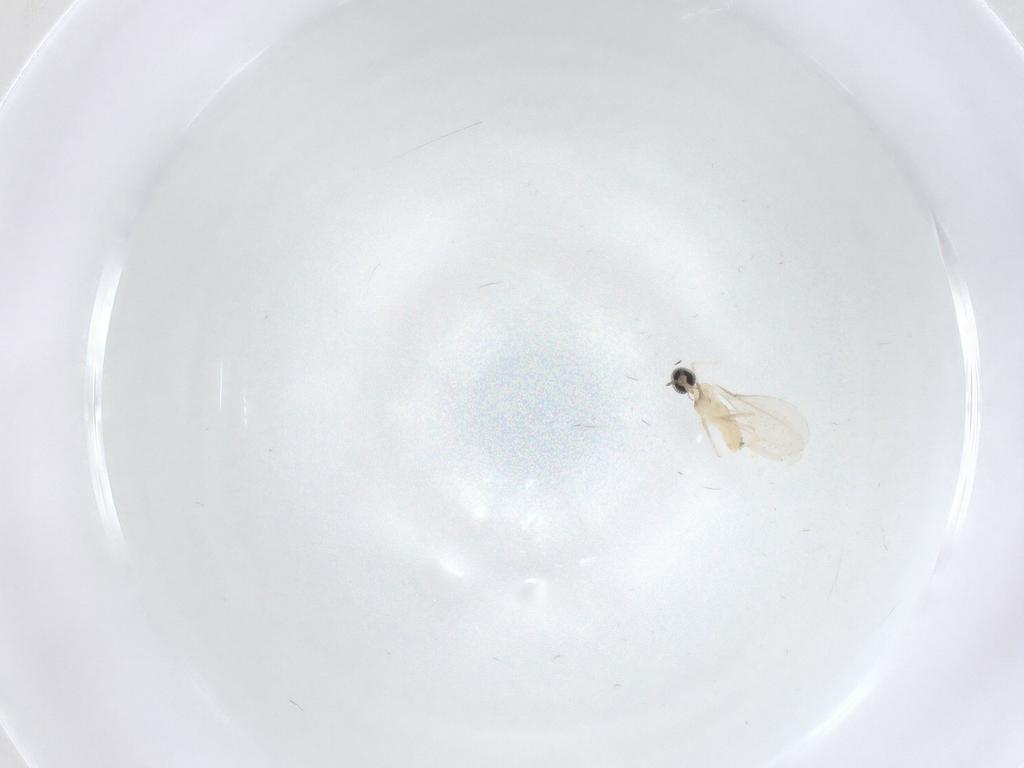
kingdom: Animalia
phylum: Arthropoda
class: Insecta
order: Diptera
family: Cecidomyiidae
